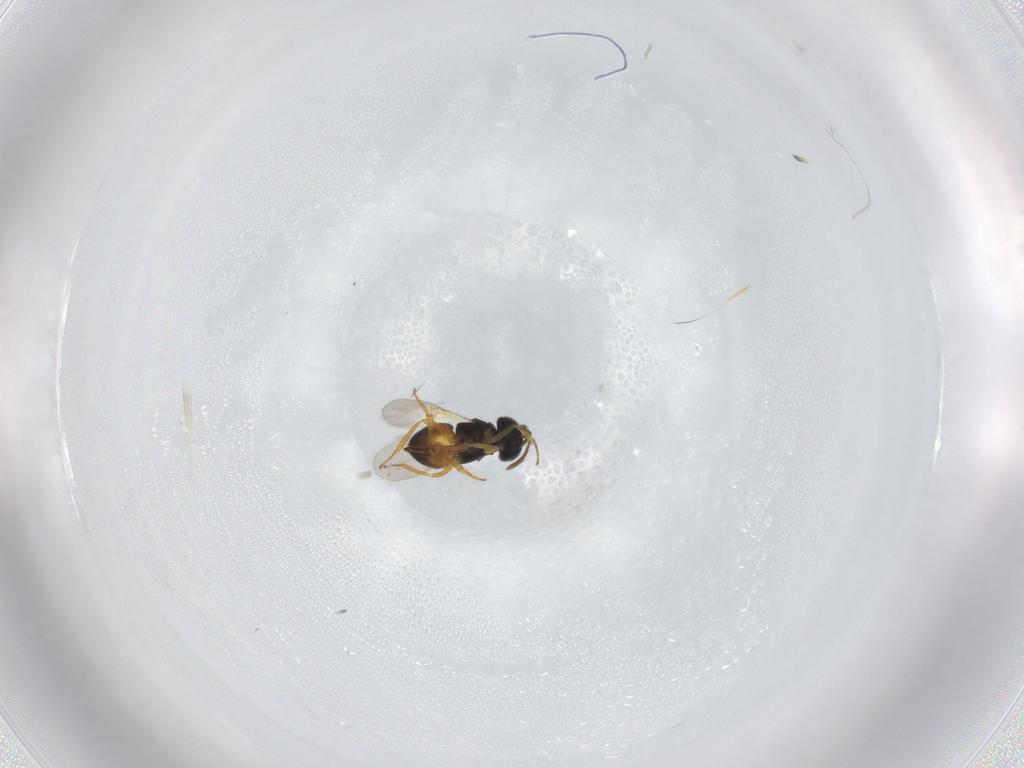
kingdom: Animalia
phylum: Arthropoda
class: Insecta
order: Hymenoptera
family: Encyrtidae
